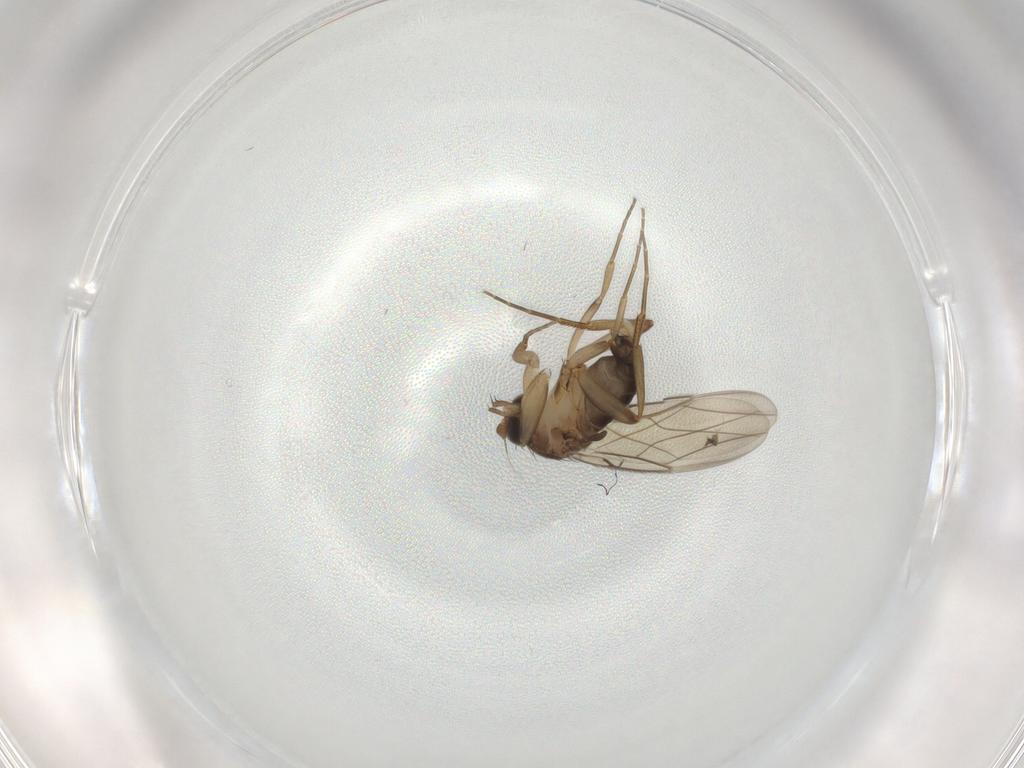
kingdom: Animalia
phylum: Arthropoda
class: Insecta
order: Diptera
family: Phoridae
